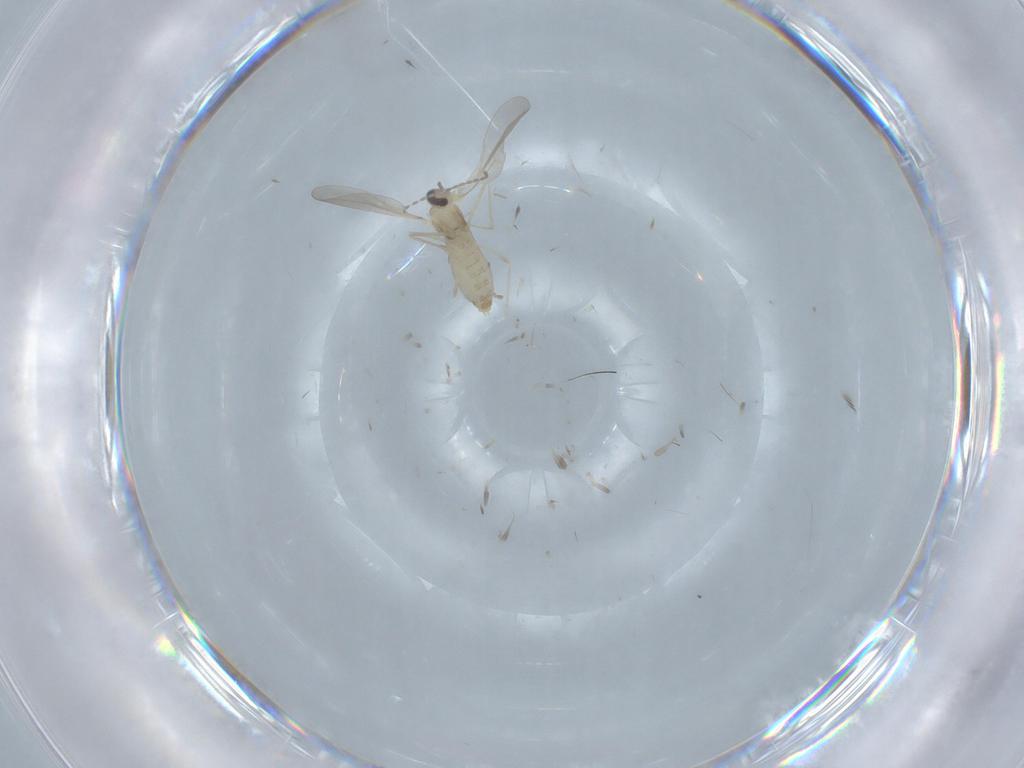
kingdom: Animalia
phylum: Arthropoda
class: Insecta
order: Diptera
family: Cecidomyiidae
